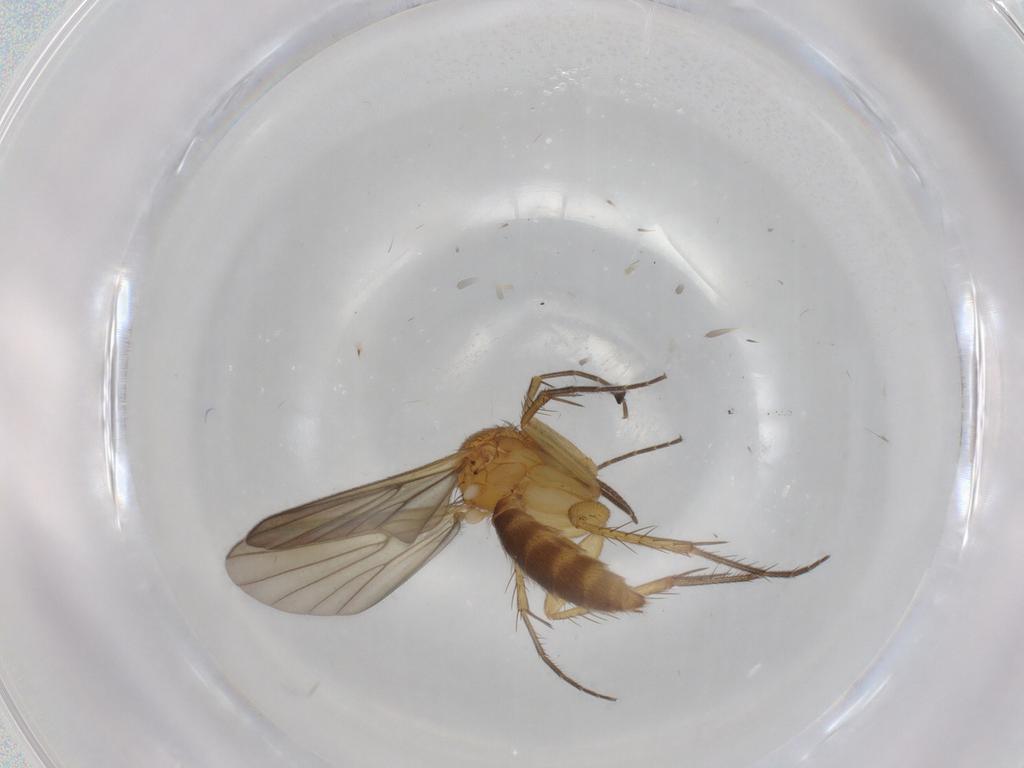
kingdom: Animalia
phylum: Arthropoda
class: Insecta
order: Diptera
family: Mycetophilidae
